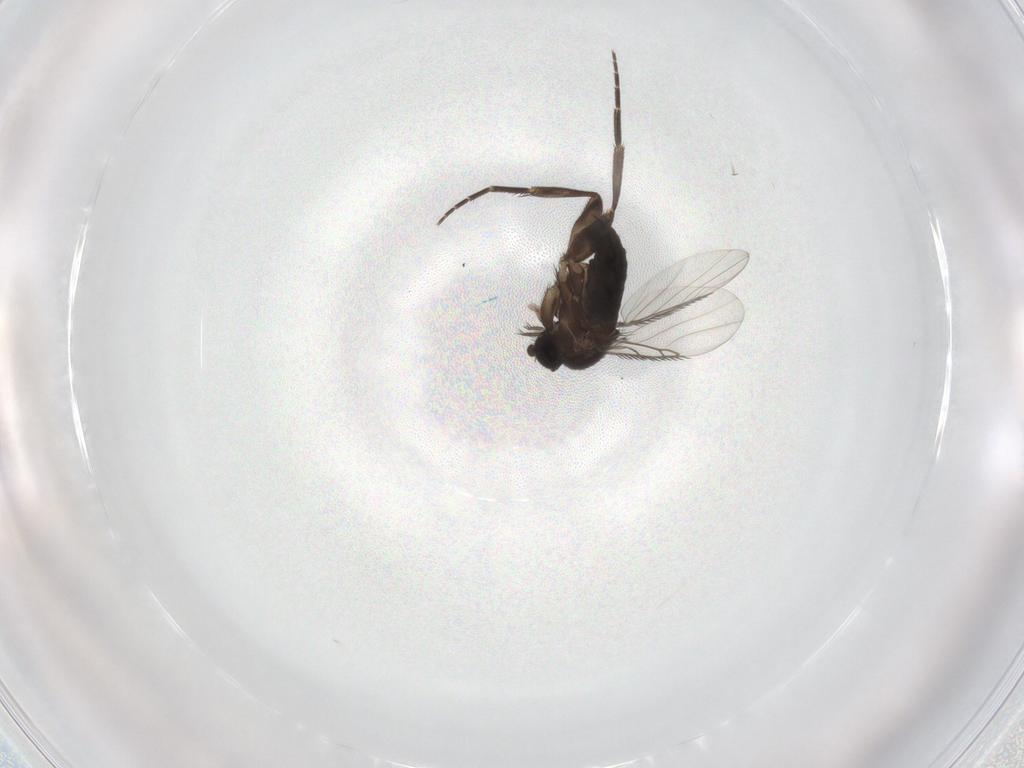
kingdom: Animalia
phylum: Arthropoda
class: Insecta
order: Diptera
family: Phoridae
